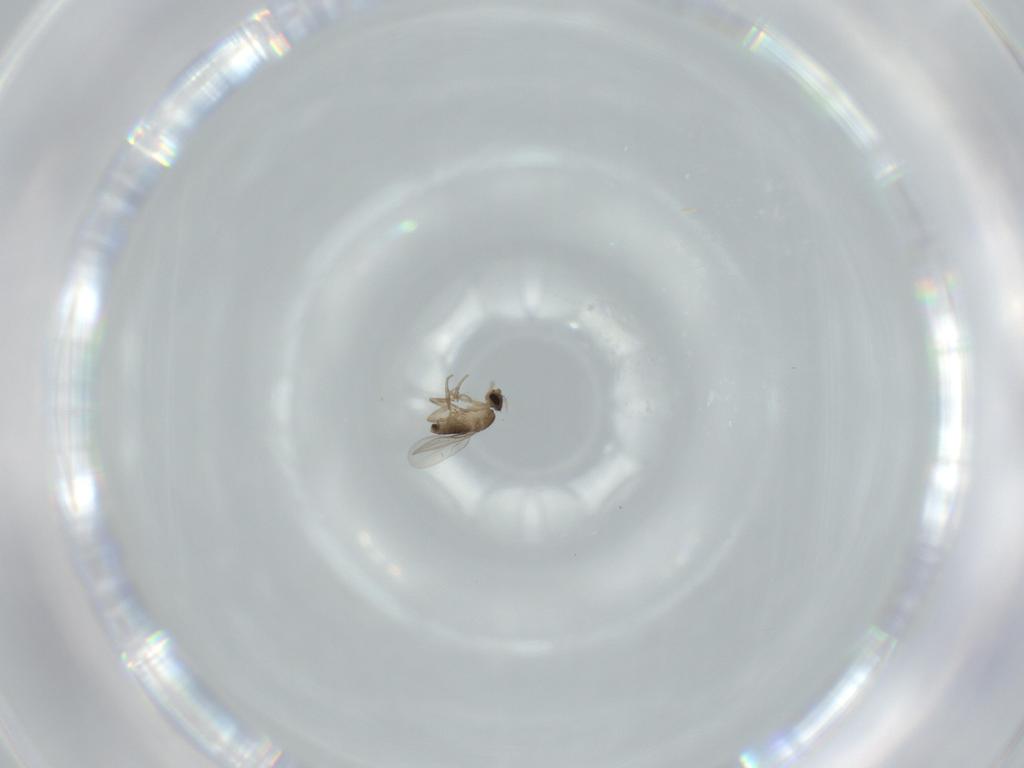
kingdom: Animalia
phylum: Arthropoda
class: Insecta
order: Diptera
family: Phoridae
